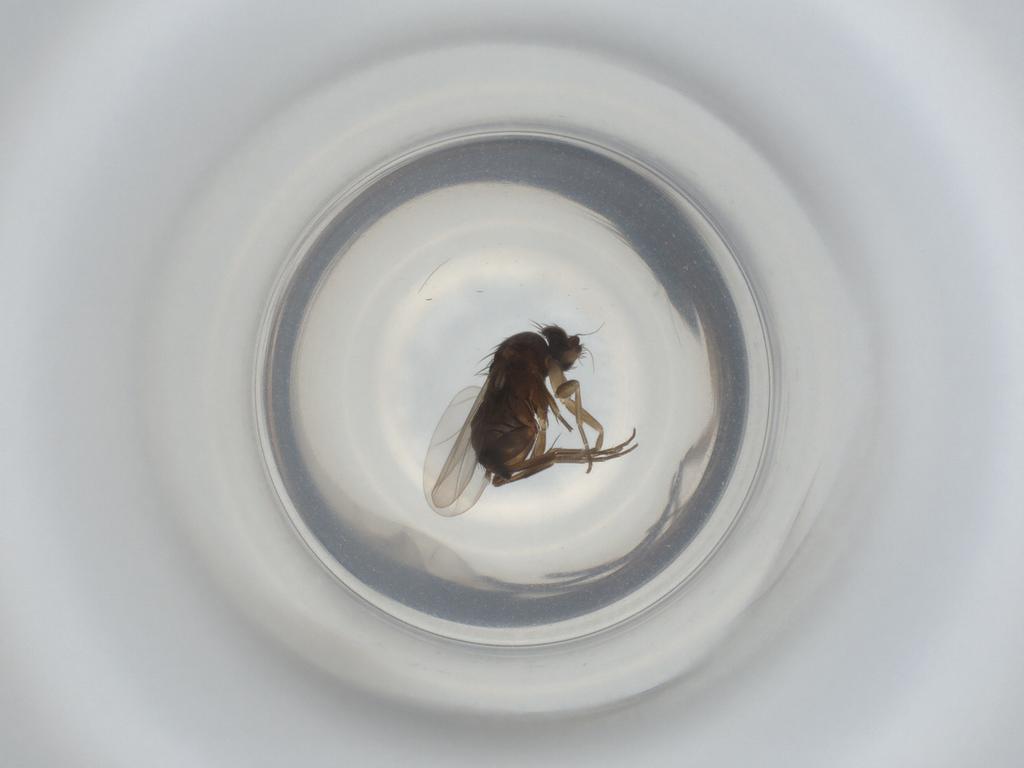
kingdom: Animalia
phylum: Arthropoda
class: Insecta
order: Diptera
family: Phoridae
